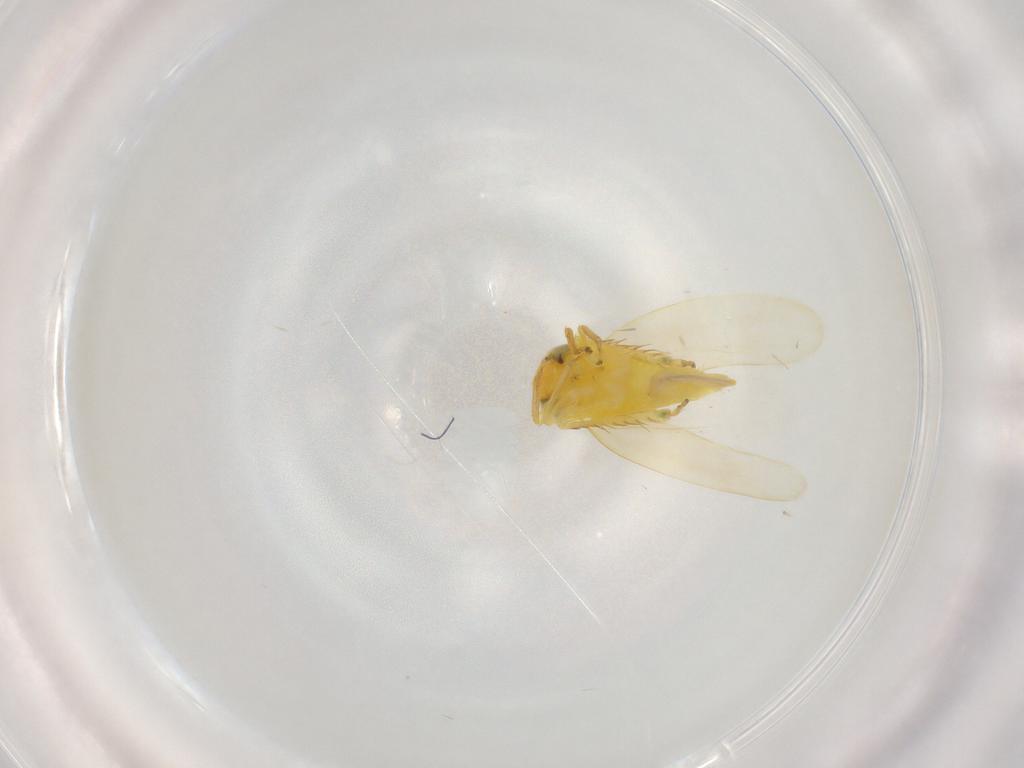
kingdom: Animalia
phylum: Arthropoda
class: Insecta
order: Hemiptera
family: Cicadellidae
